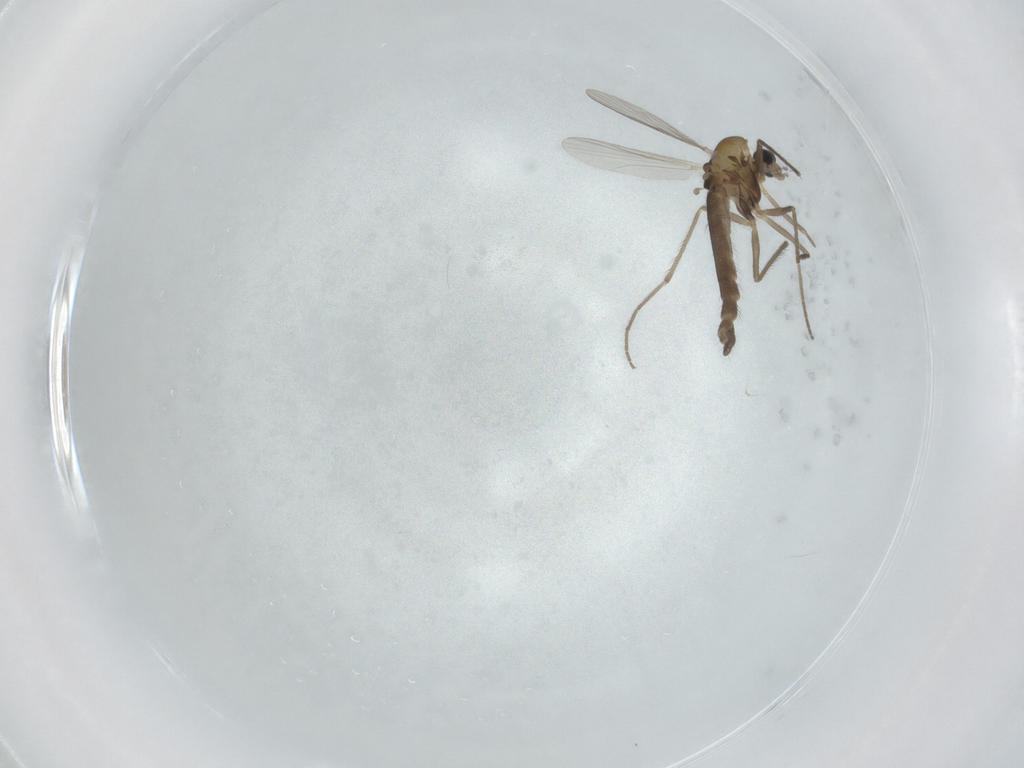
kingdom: Animalia
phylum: Arthropoda
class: Insecta
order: Diptera
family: Chironomidae
